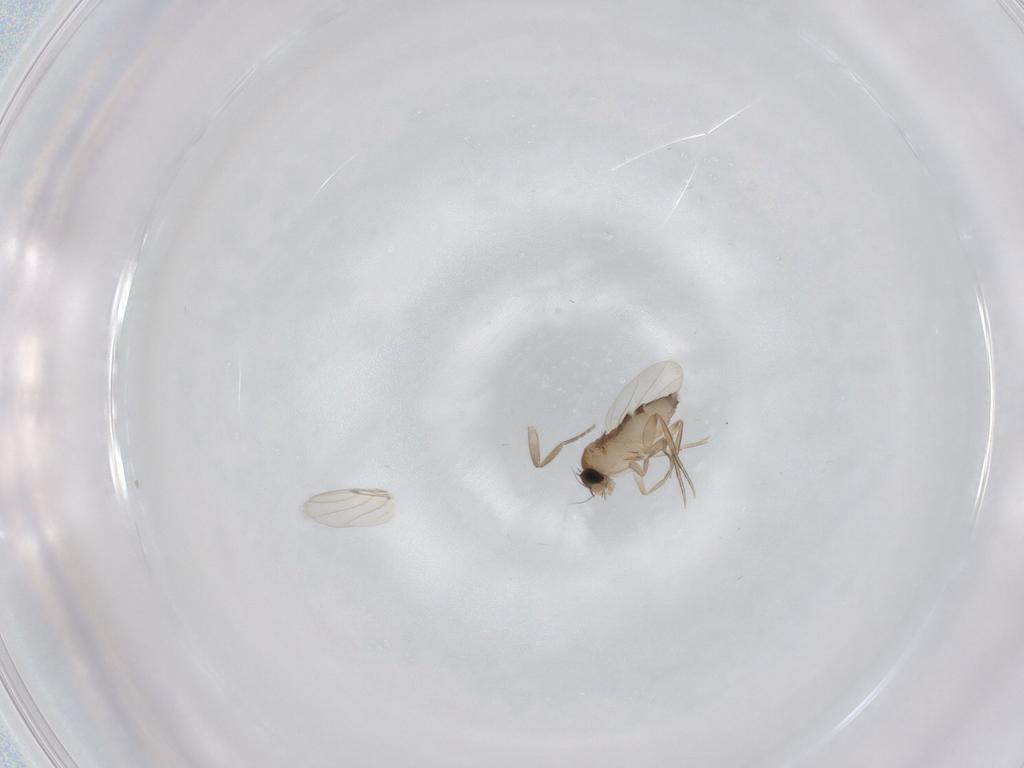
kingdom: Animalia
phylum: Arthropoda
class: Insecta
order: Diptera
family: Phoridae
